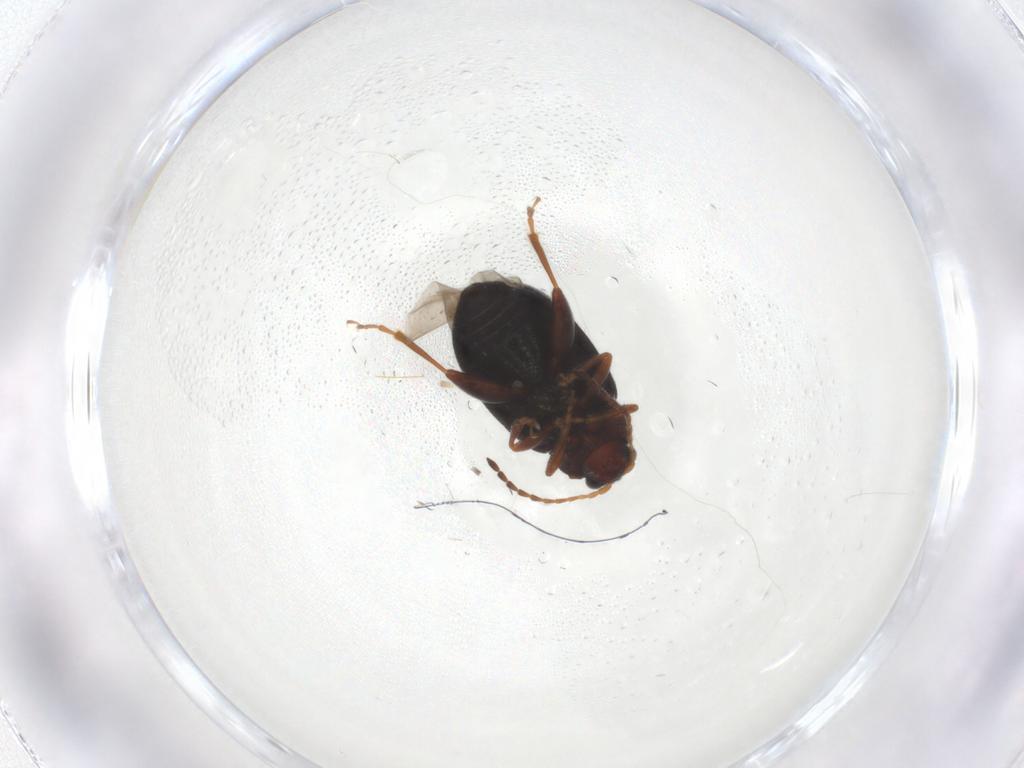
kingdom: Animalia
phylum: Arthropoda
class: Insecta
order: Coleoptera
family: Chrysomelidae
